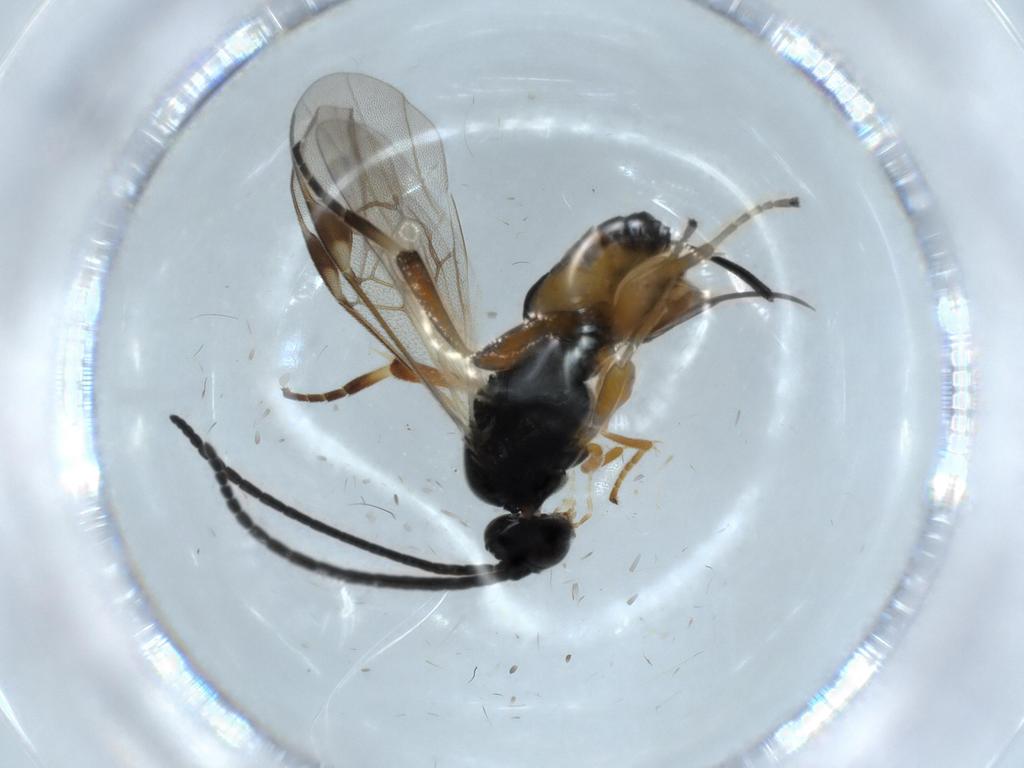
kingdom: Animalia
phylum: Arthropoda
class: Insecta
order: Hymenoptera
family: Braconidae
